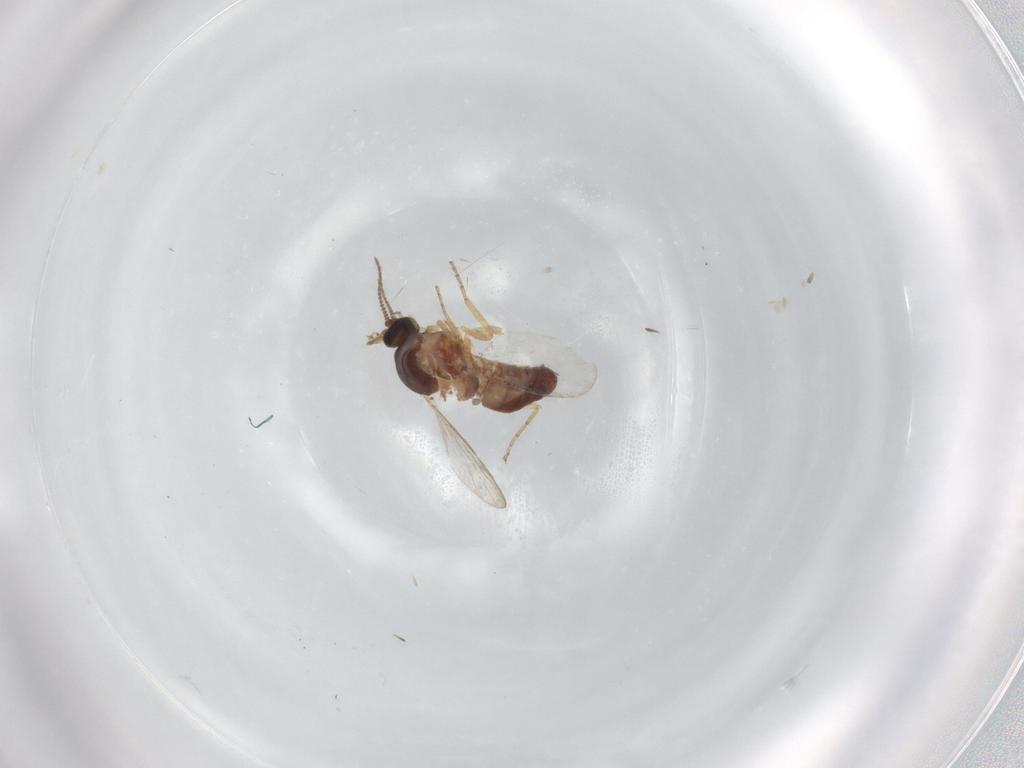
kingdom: Animalia
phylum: Arthropoda
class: Insecta
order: Diptera
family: Ceratopogonidae
